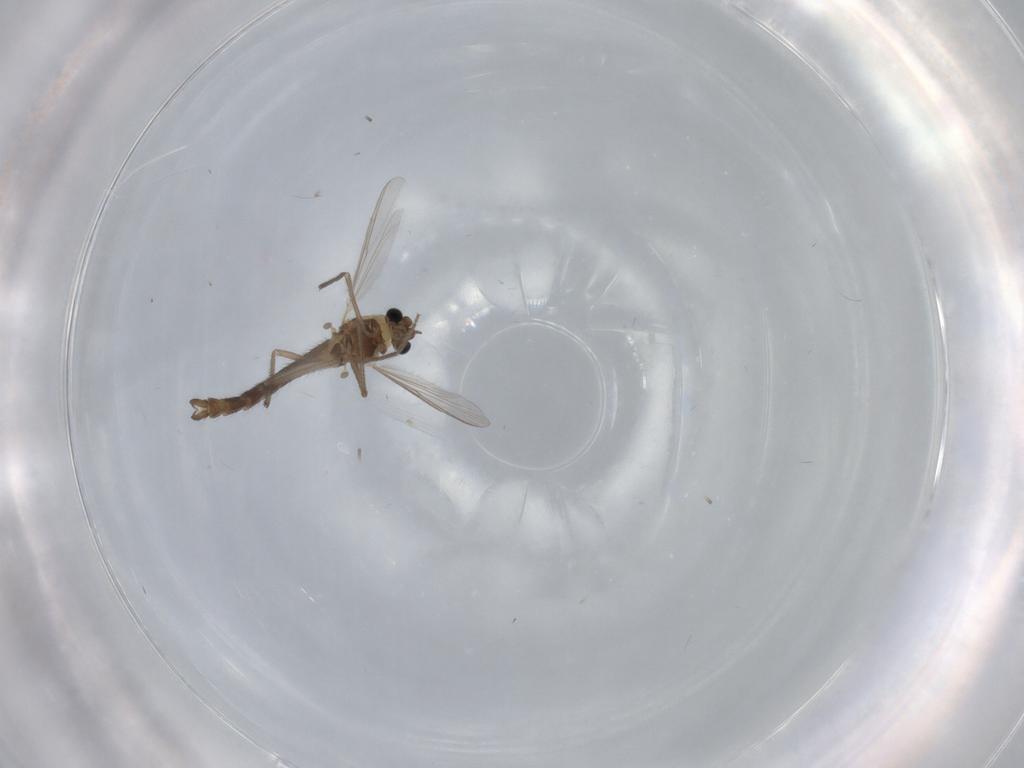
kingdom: Animalia
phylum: Arthropoda
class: Insecta
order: Diptera
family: Chironomidae
